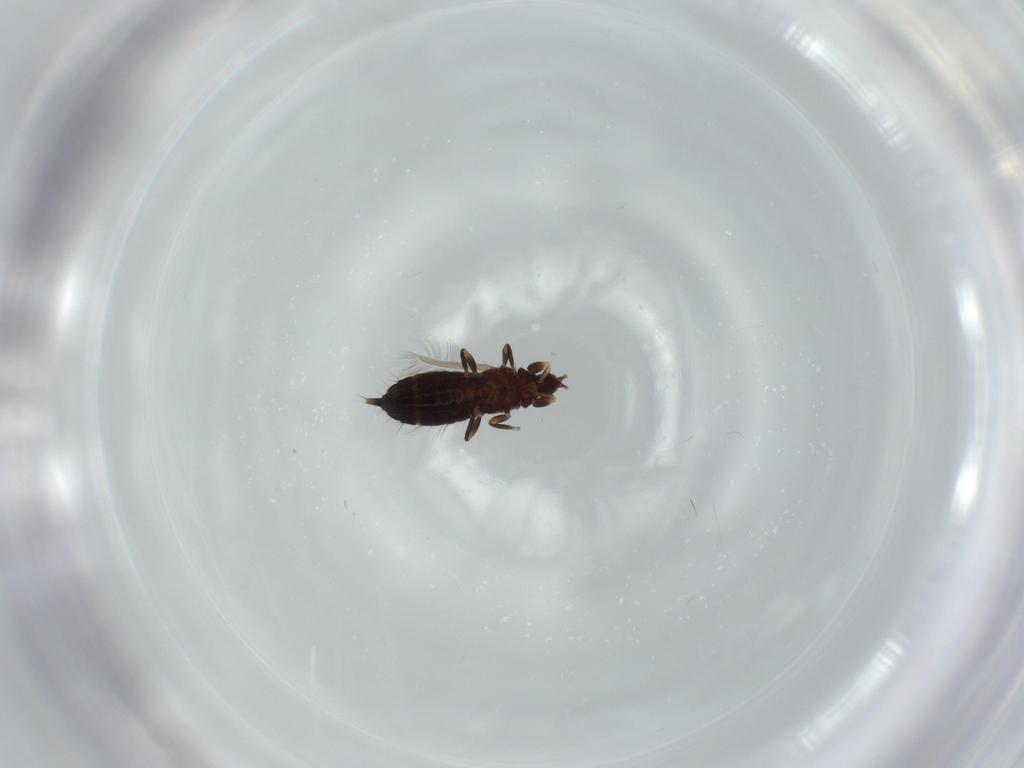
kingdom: Animalia
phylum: Arthropoda
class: Insecta
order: Thysanoptera
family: Phlaeothripidae
